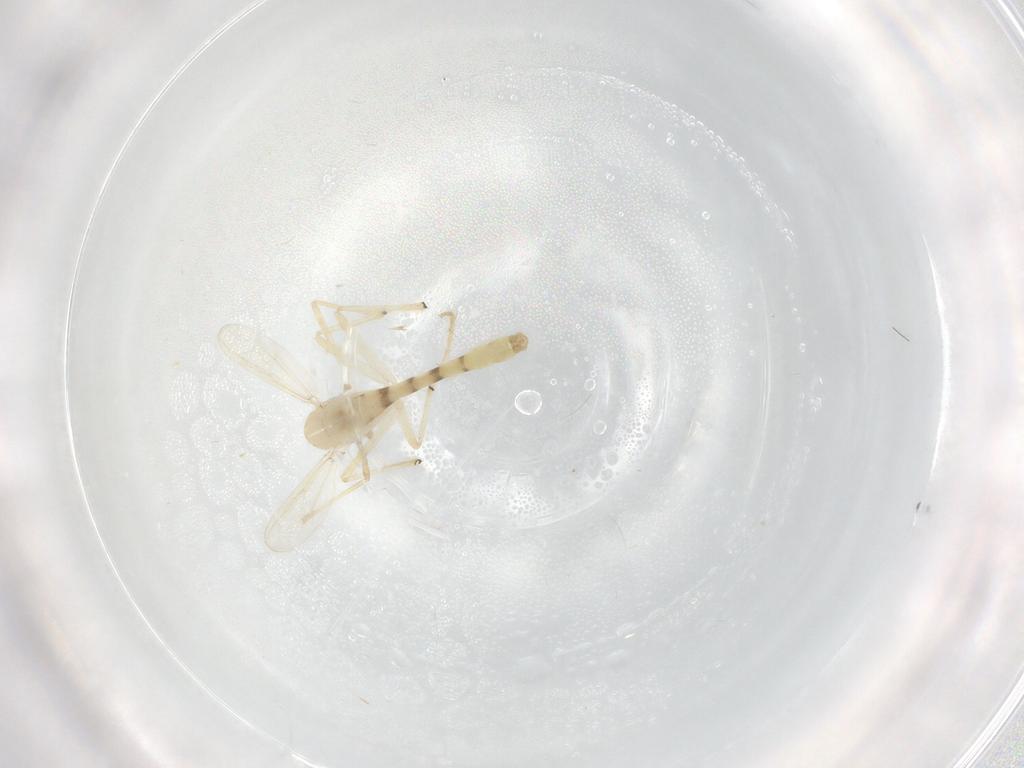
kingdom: Animalia
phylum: Arthropoda
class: Insecta
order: Diptera
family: Chironomidae
